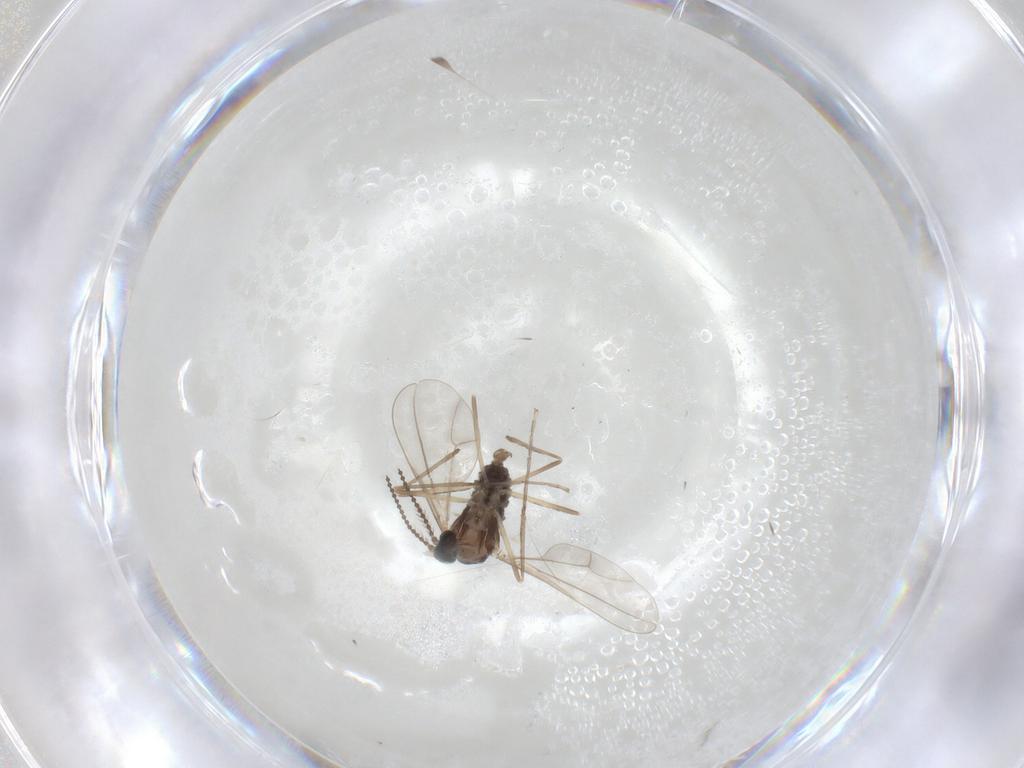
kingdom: Animalia
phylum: Arthropoda
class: Insecta
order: Diptera
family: Cecidomyiidae
